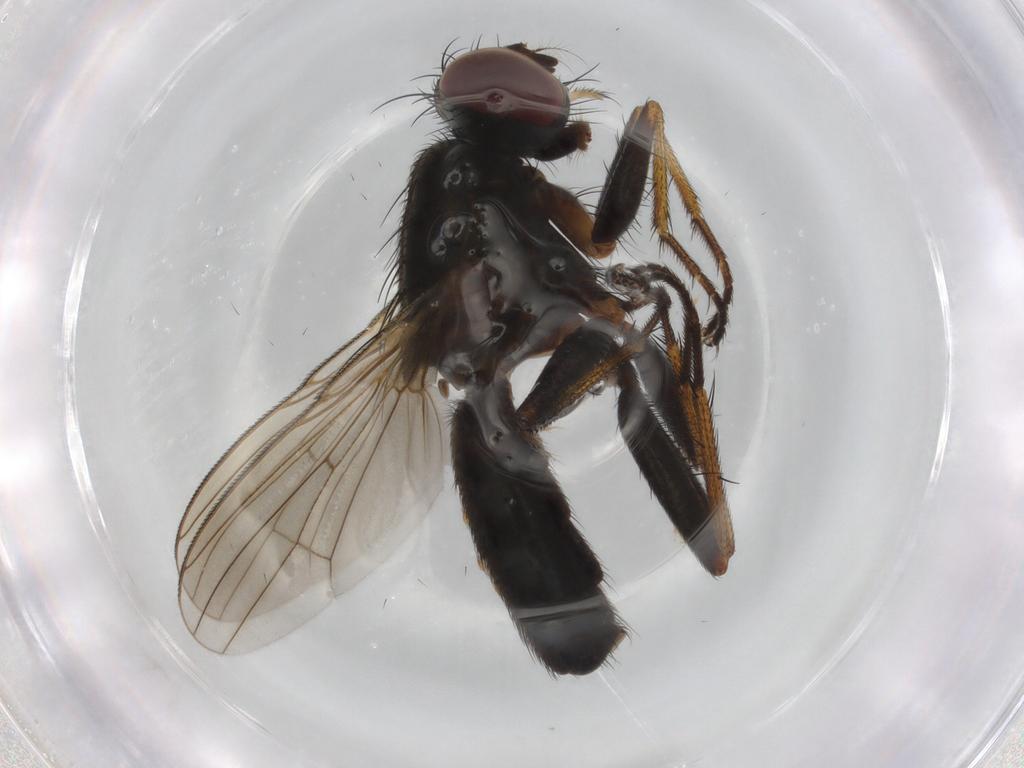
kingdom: Animalia
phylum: Arthropoda
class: Insecta
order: Diptera
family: Muscidae
